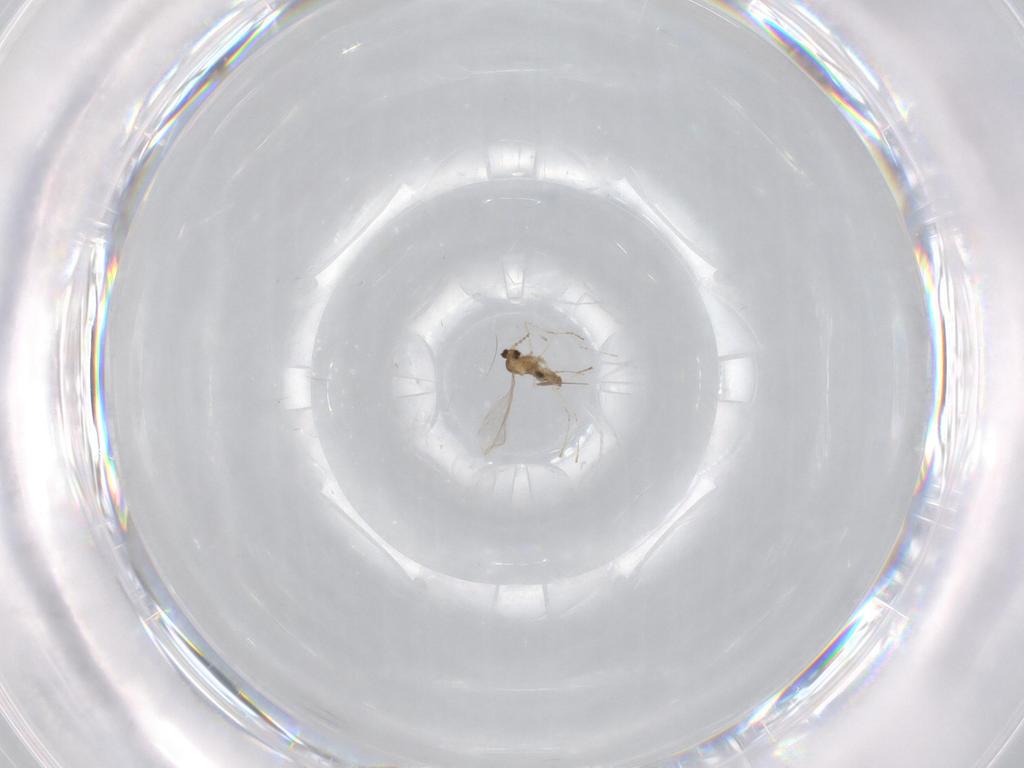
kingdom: Animalia
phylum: Arthropoda
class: Insecta
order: Diptera
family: Cecidomyiidae
